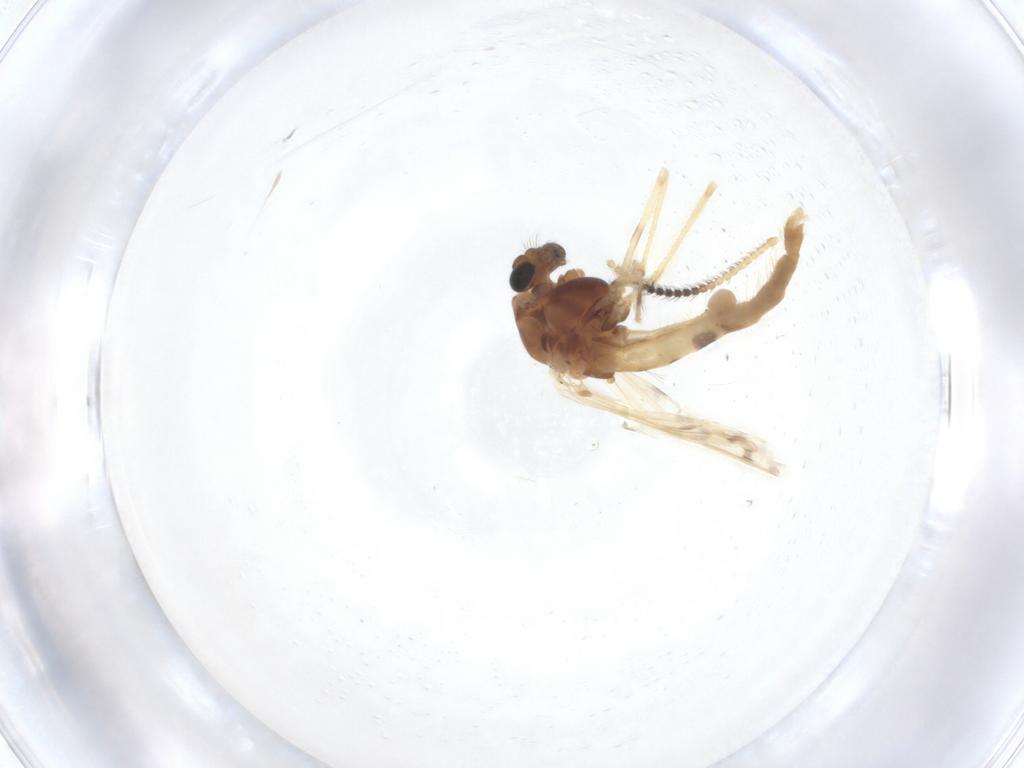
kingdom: Animalia
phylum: Arthropoda
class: Insecta
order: Diptera
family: Chironomidae
